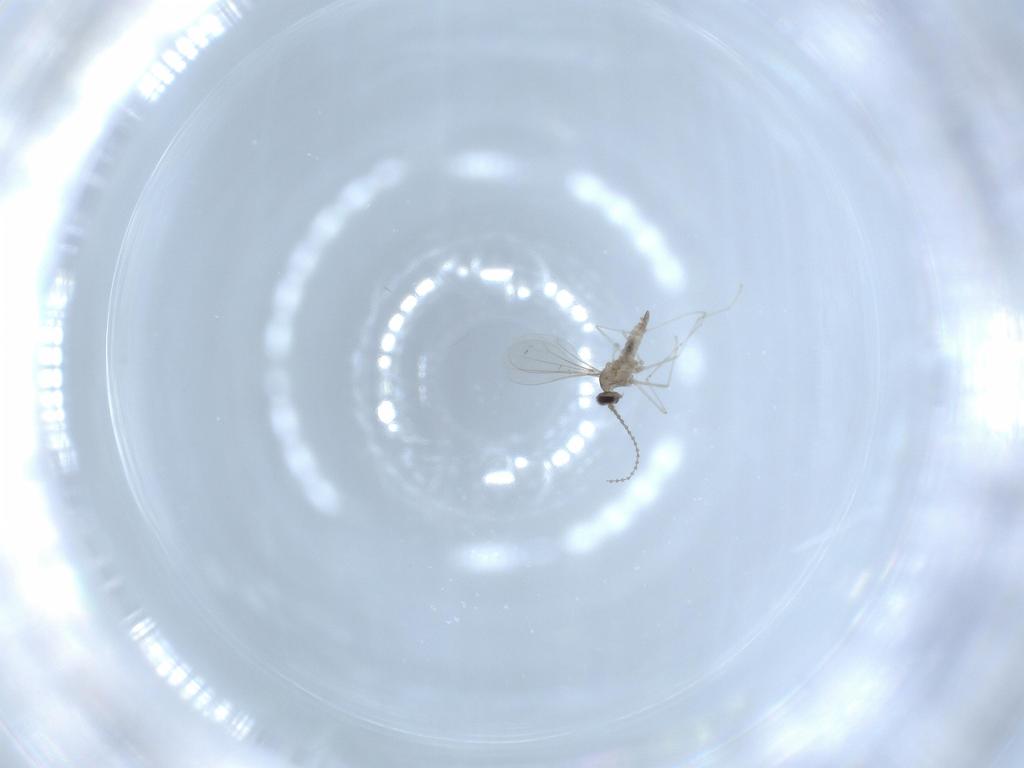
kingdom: Animalia
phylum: Arthropoda
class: Insecta
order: Diptera
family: Cecidomyiidae
